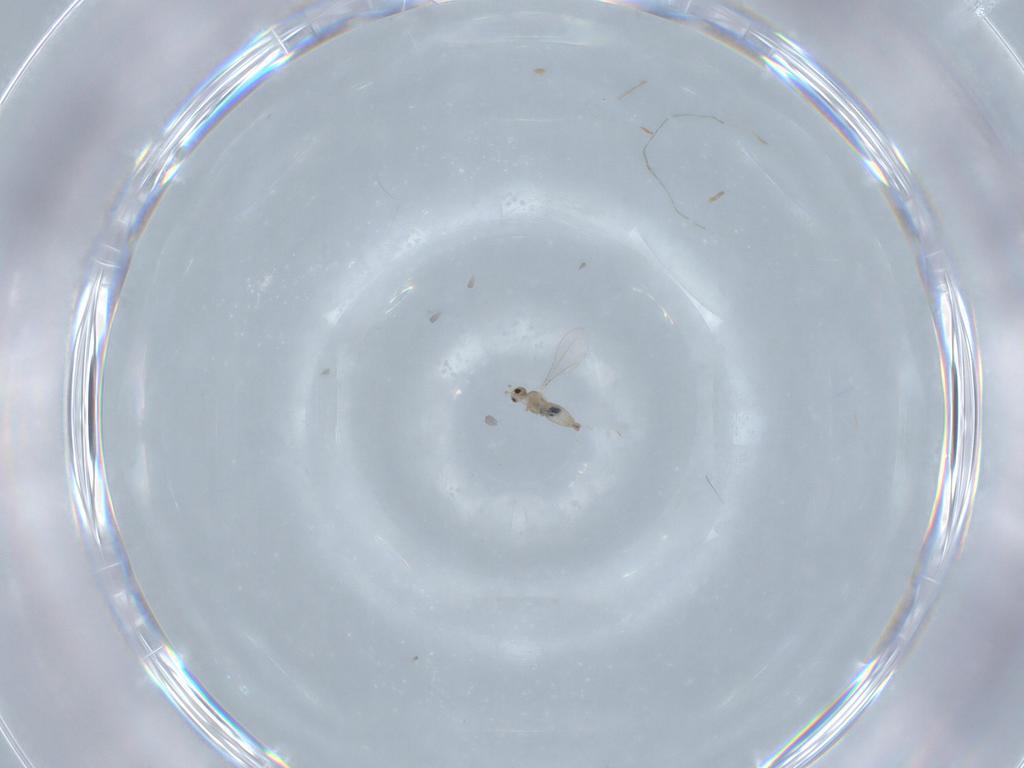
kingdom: Animalia
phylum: Arthropoda
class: Insecta
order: Diptera
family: Cecidomyiidae
